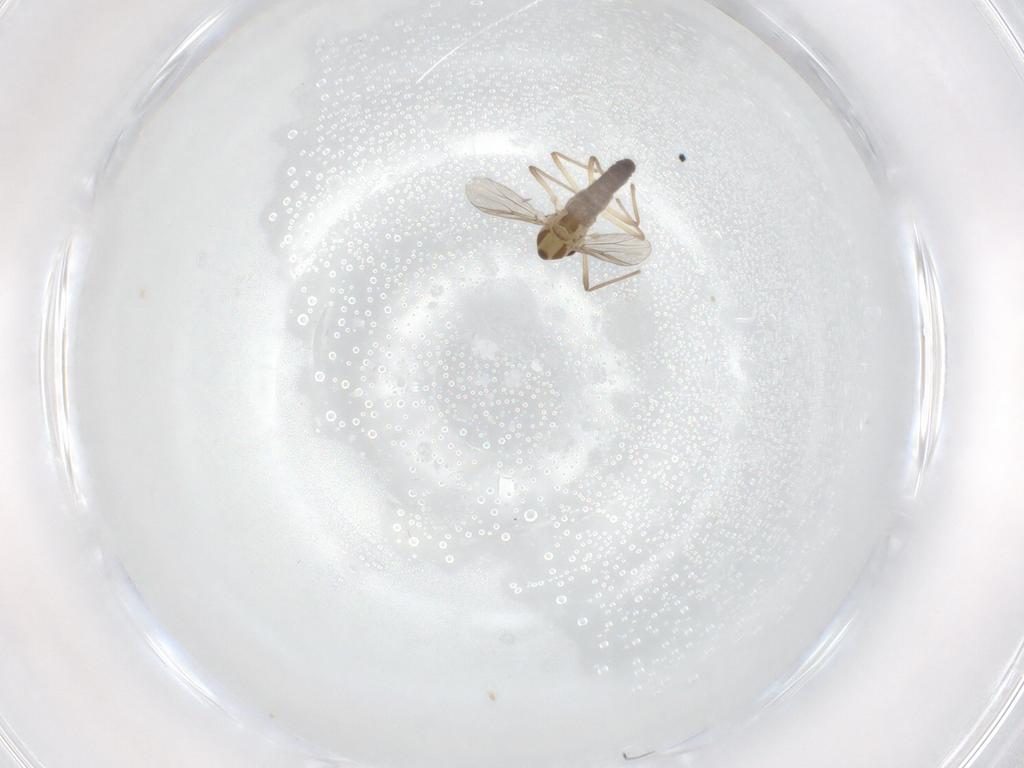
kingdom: Animalia
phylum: Arthropoda
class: Insecta
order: Diptera
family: Chironomidae
